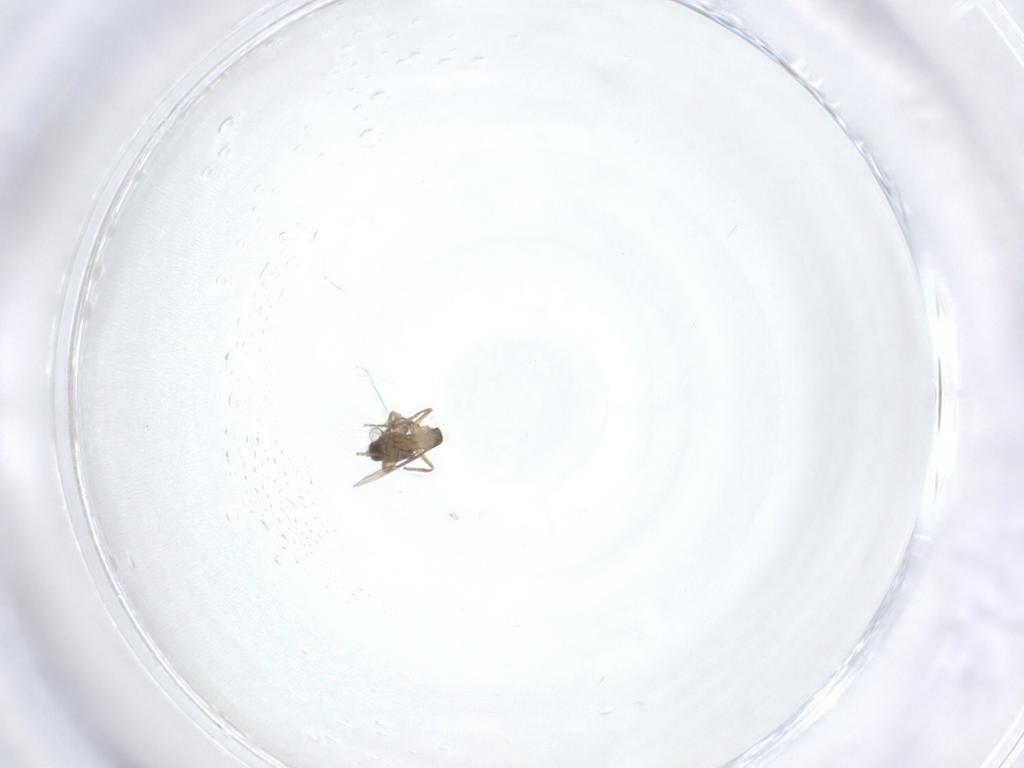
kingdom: Animalia
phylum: Arthropoda
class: Insecta
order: Diptera
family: Phoridae
